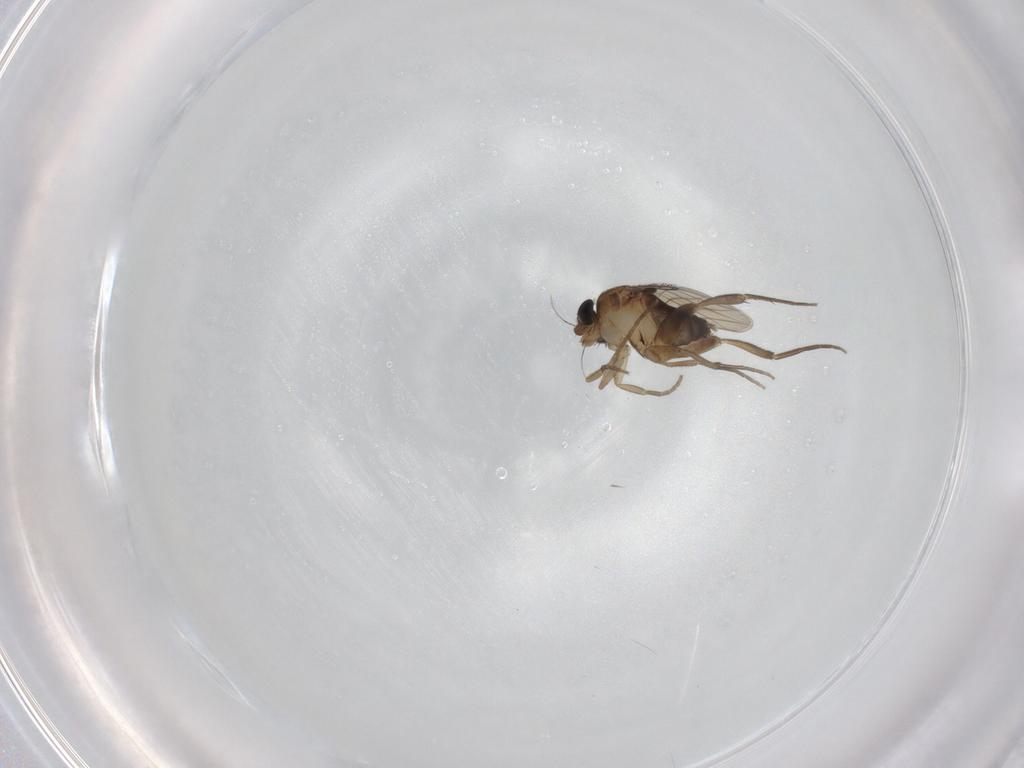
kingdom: Animalia
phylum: Arthropoda
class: Insecta
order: Diptera
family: Phoridae
